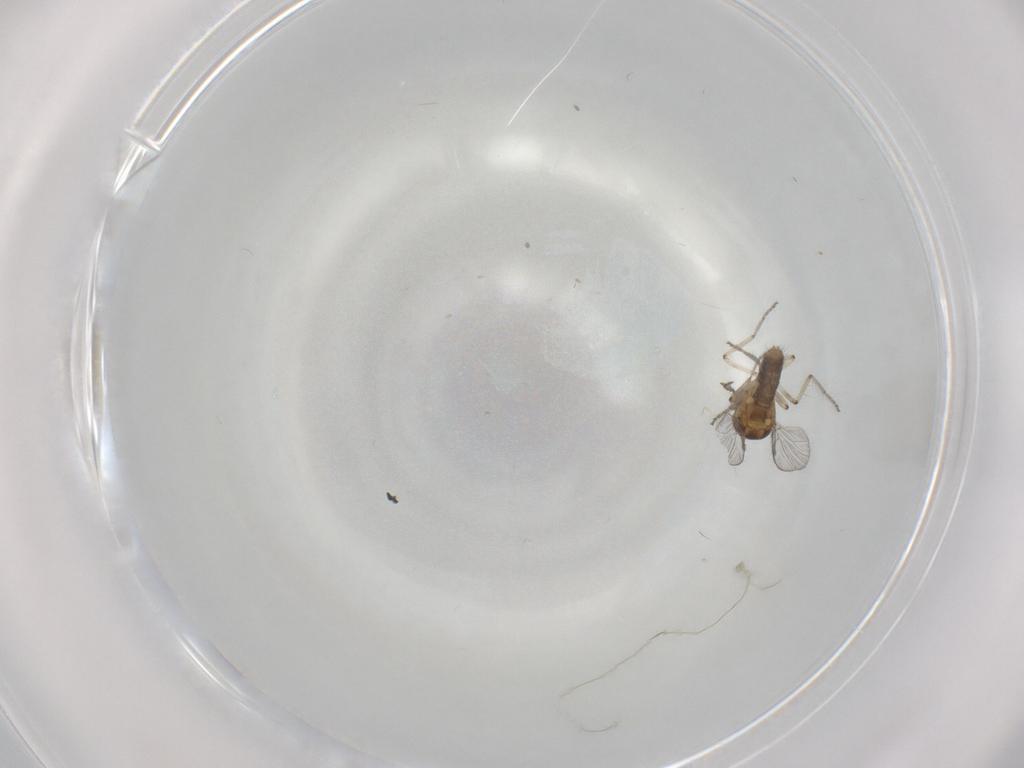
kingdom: Animalia
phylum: Arthropoda
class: Insecta
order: Diptera
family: Ceratopogonidae
